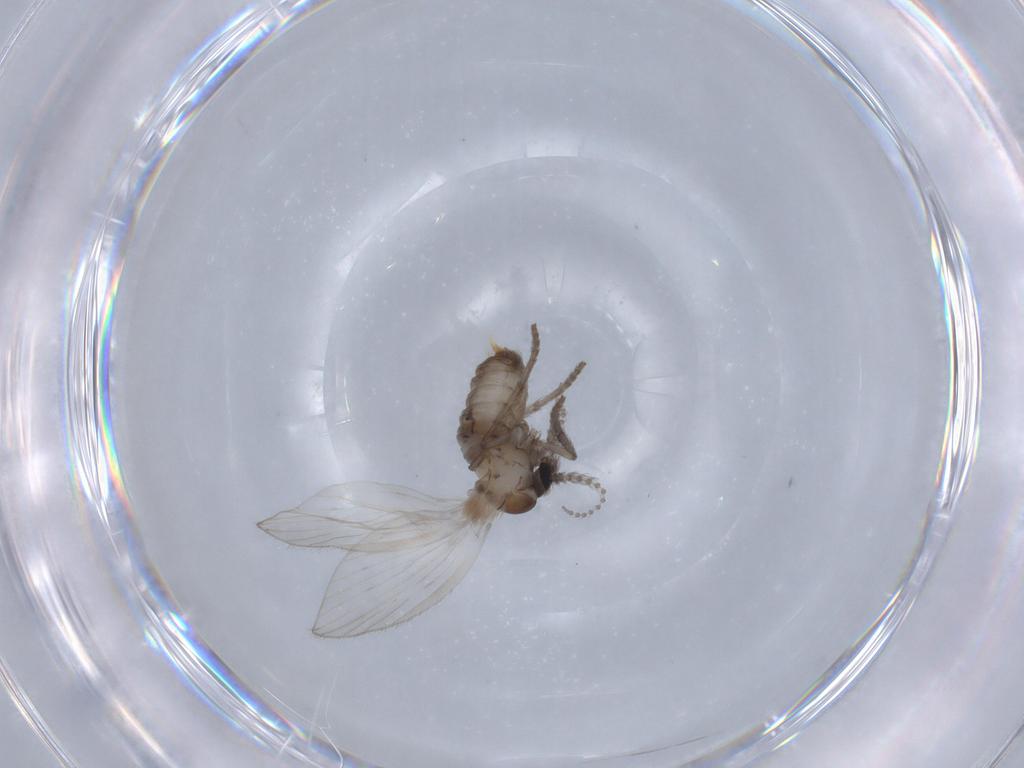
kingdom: Animalia
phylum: Arthropoda
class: Insecta
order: Diptera
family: Psychodidae
